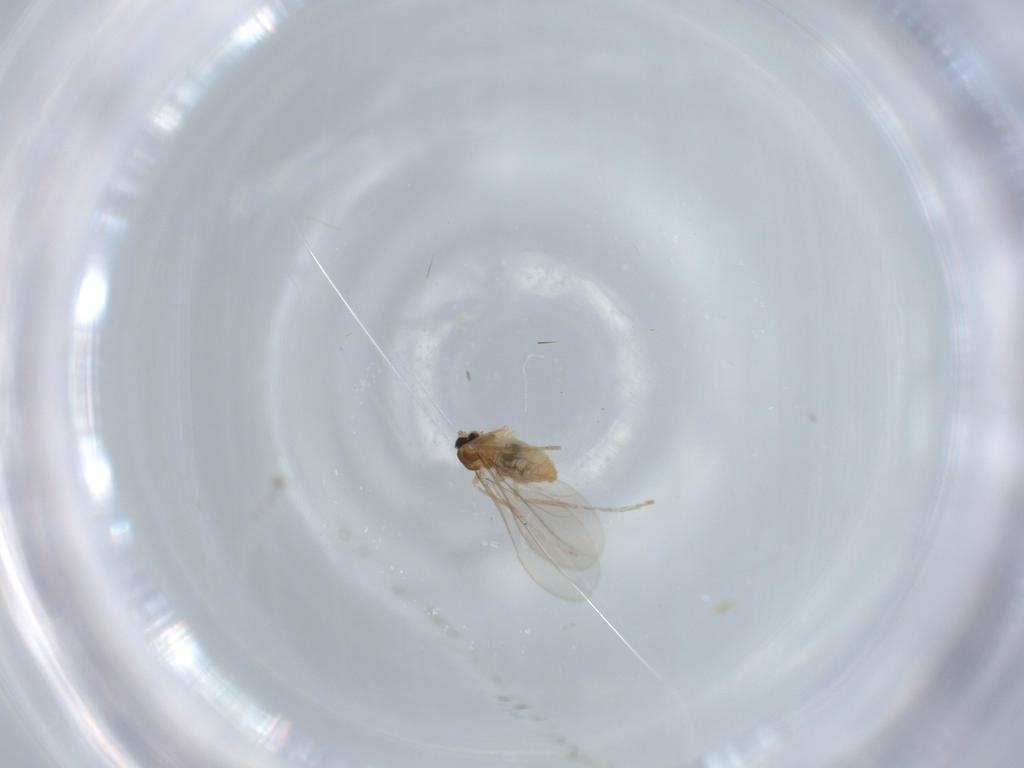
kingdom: Animalia
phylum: Arthropoda
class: Insecta
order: Diptera
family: Cecidomyiidae
